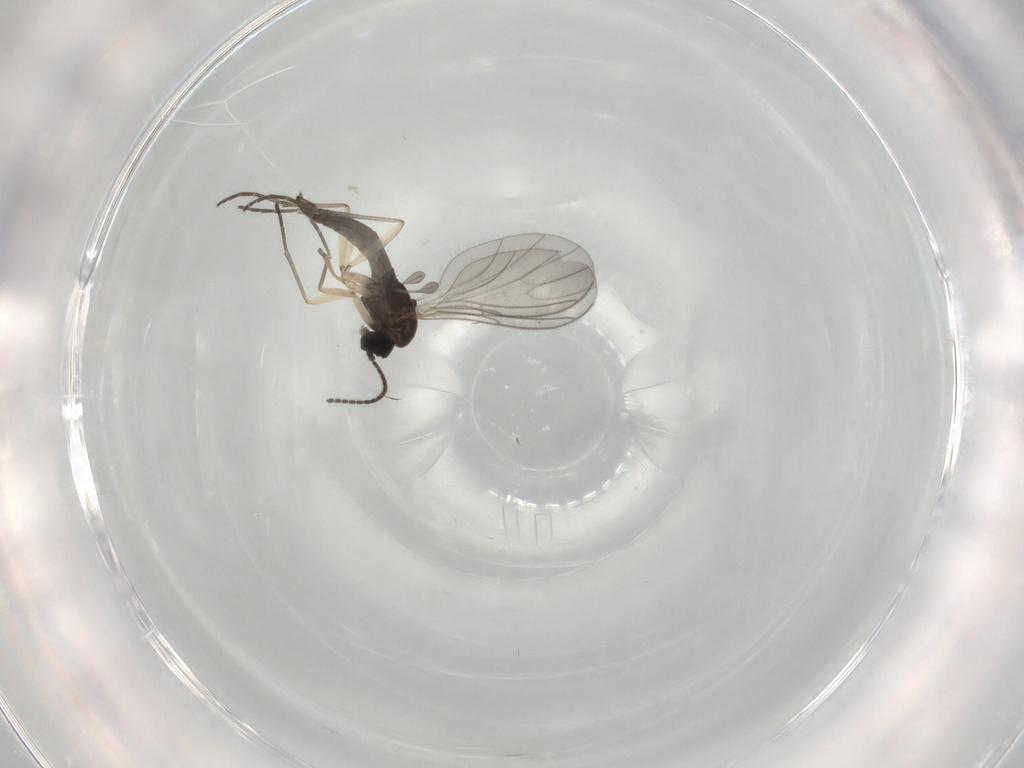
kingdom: Animalia
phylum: Arthropoda
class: Insecta
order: Diptera
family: Sciaridae
